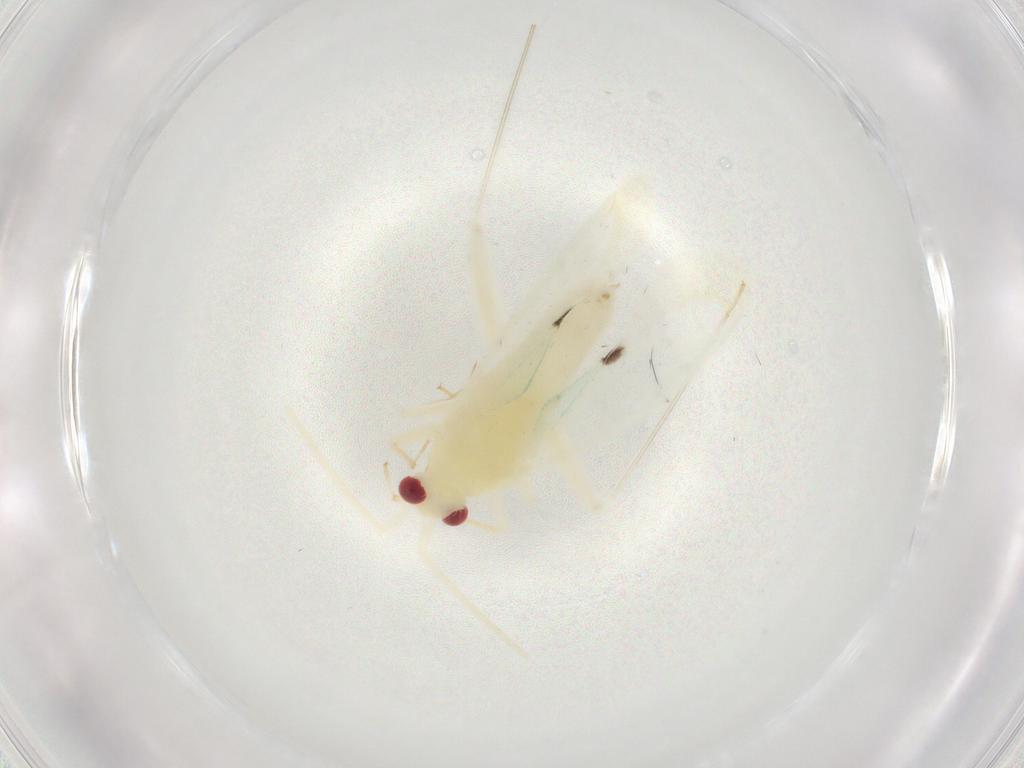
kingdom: Animalia
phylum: Arthropoda
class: Insecta
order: Hemiptera
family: Miridae
